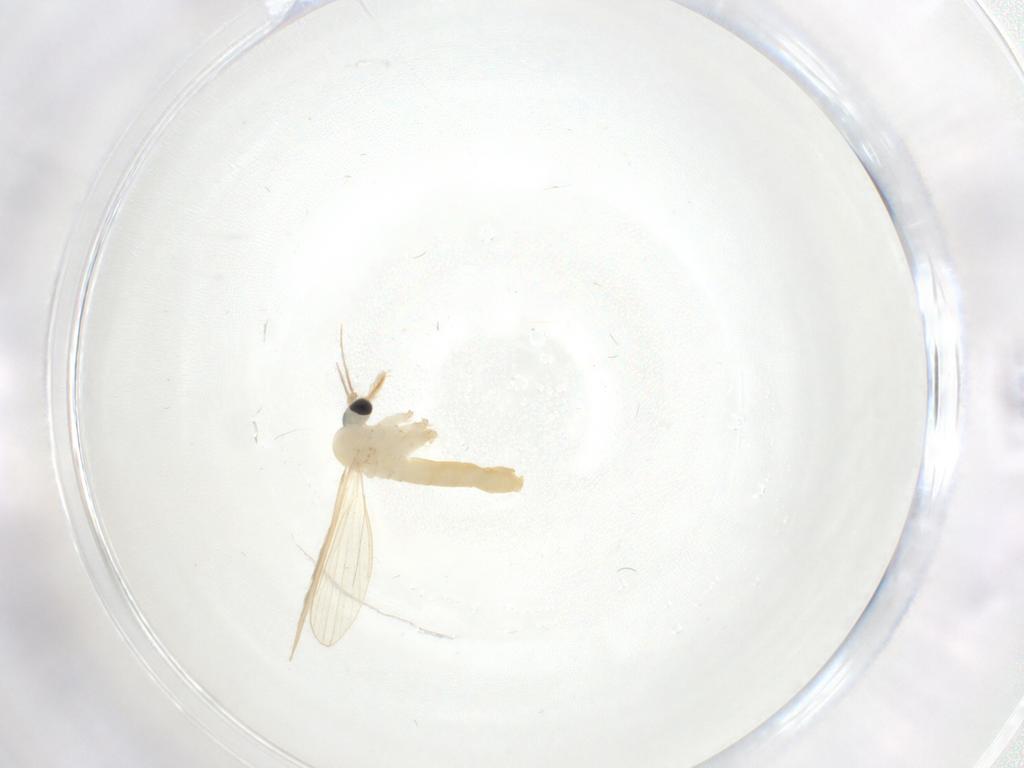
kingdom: Animalia
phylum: Arthropoda
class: Insecta
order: Diptera
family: Psychodidae
